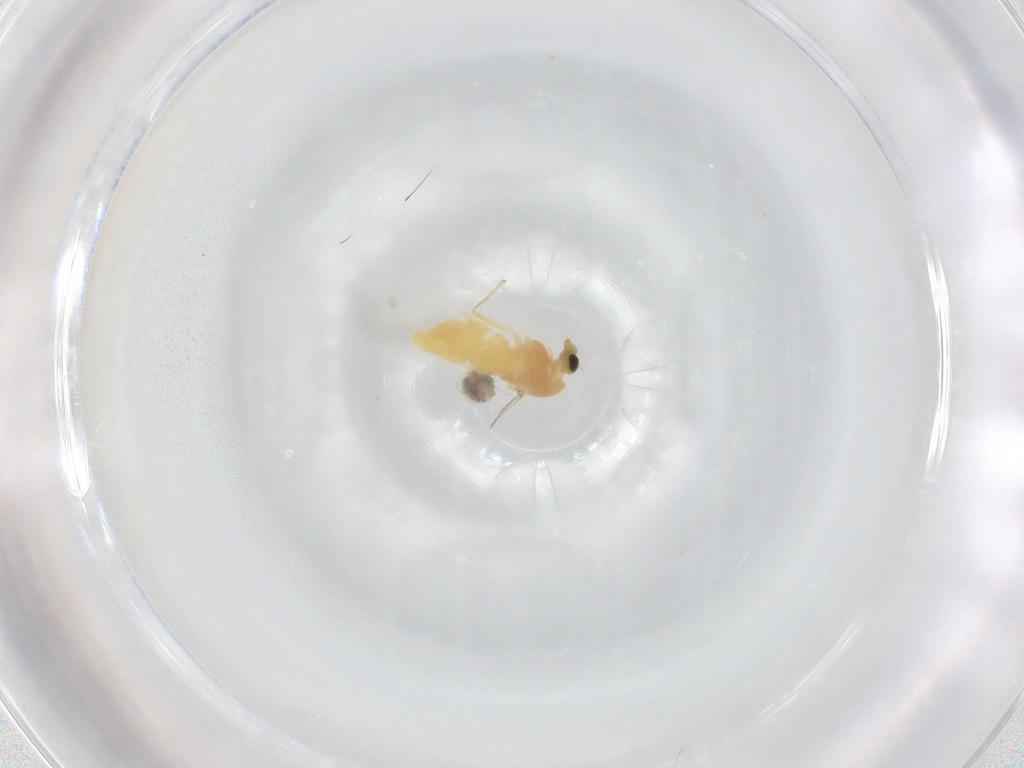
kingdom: Animalia
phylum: Arthropoda
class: Insecta
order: Diptera
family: Chironomidae
